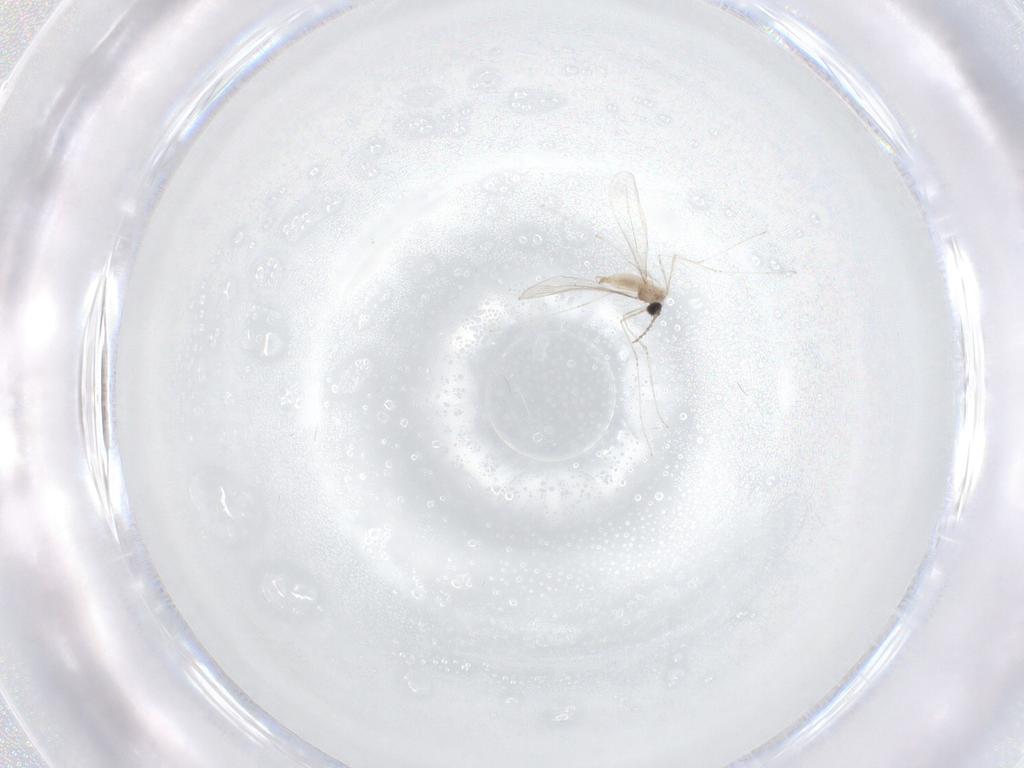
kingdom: Animalia
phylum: Arthropoda
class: Insecta
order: Diptera
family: Cecidomyiidae
